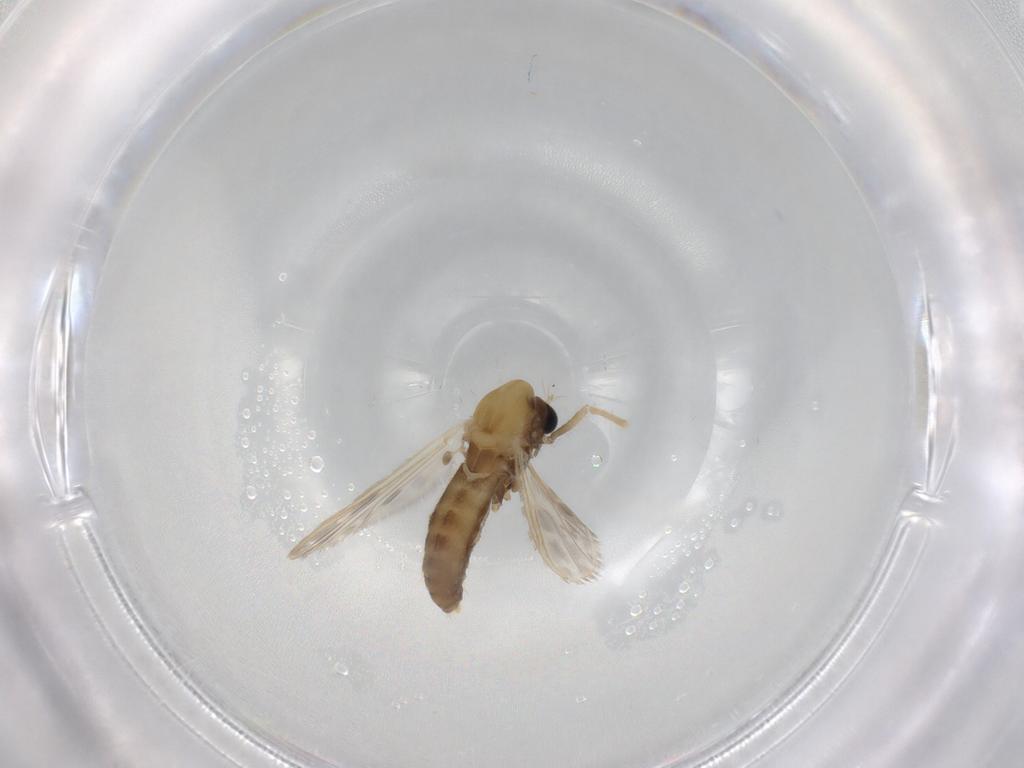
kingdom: Animalia
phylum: Arthropoda
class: Insecta
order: Diptera
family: Chironomidae
